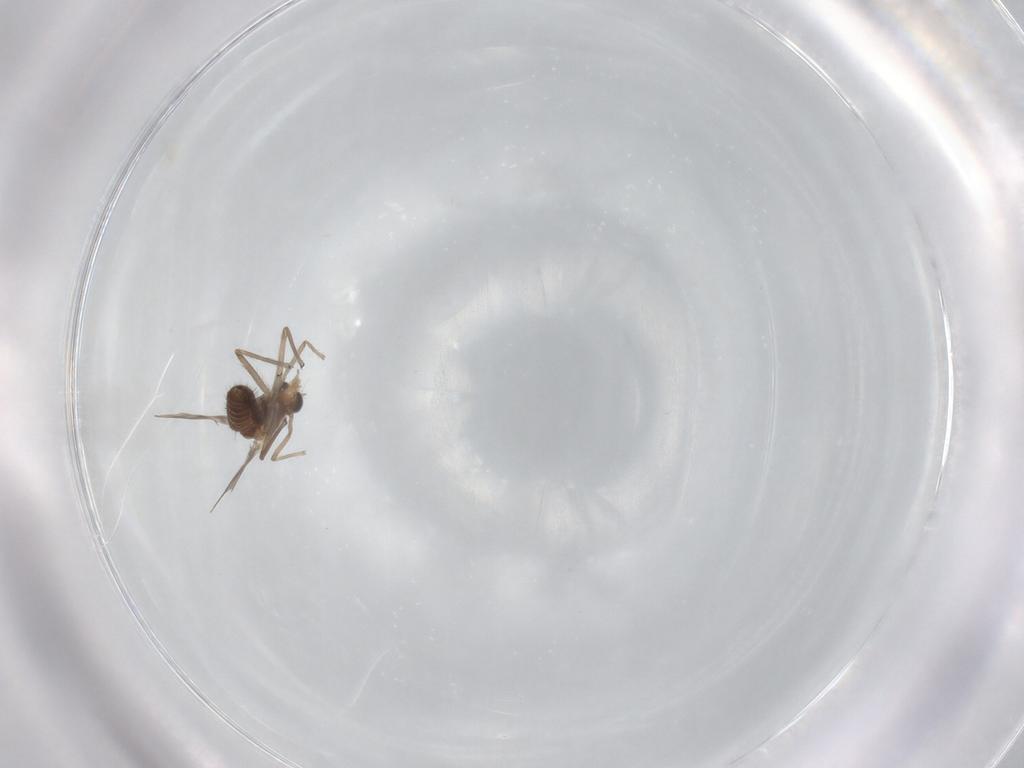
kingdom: Animalia
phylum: Arthropoda
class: Insecta
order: Diptera
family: Chironomidae
